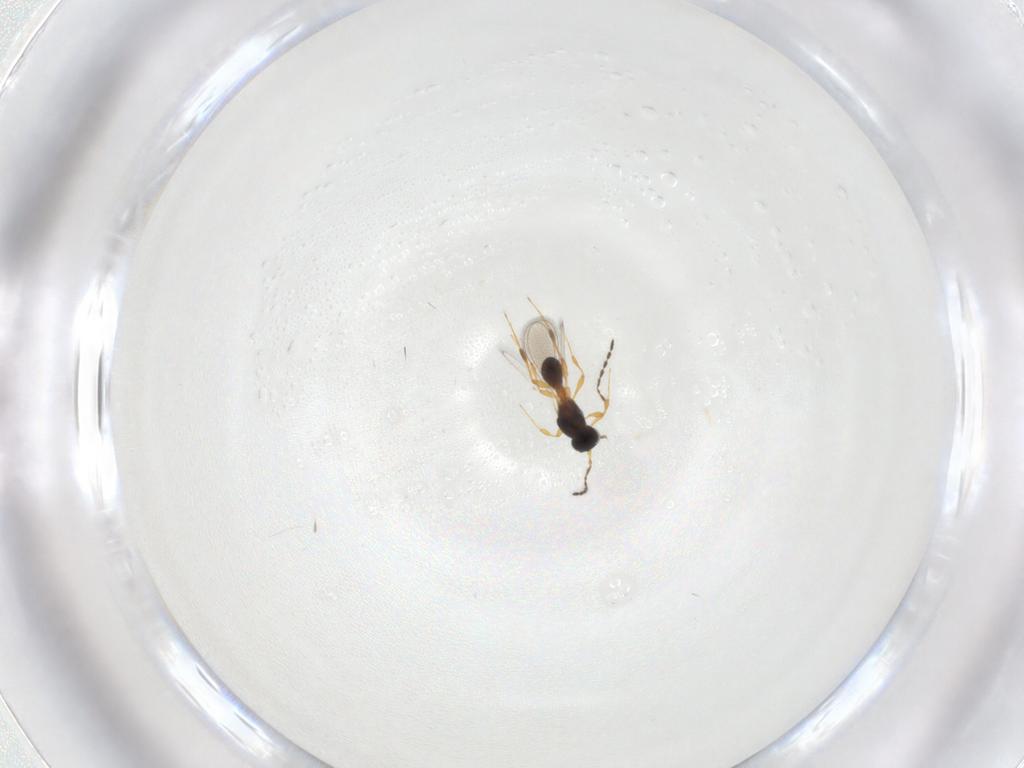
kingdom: Animalia
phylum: Arthropoda
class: Insecta
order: Hymenoptera
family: Platygastridae
